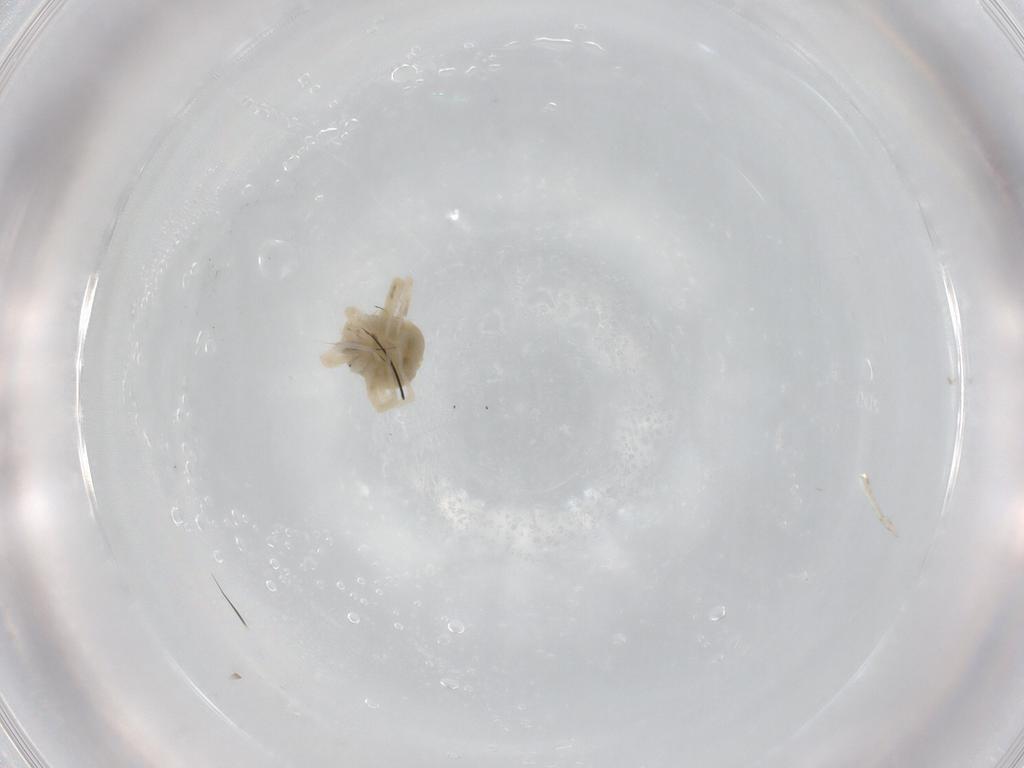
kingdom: Animalia
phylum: Arthropoda
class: Arachnida
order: Trombidiformes
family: Anystidae
